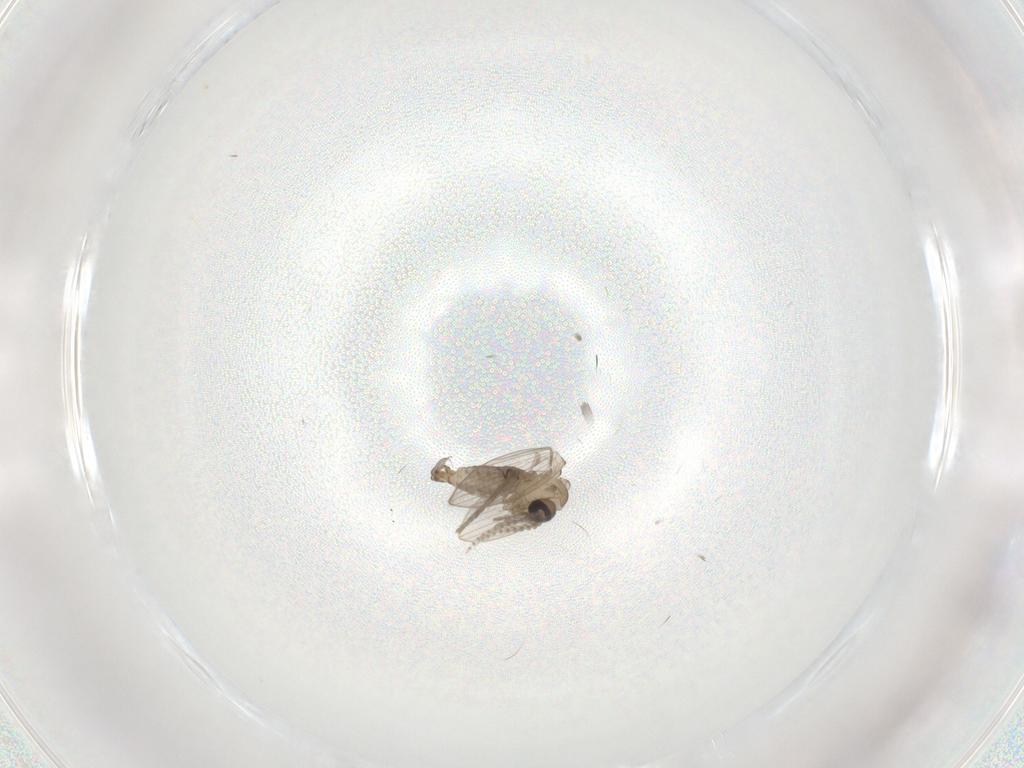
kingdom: Animalia
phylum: Arthropoda
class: Insecta
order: Diptera
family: Psychodidae
